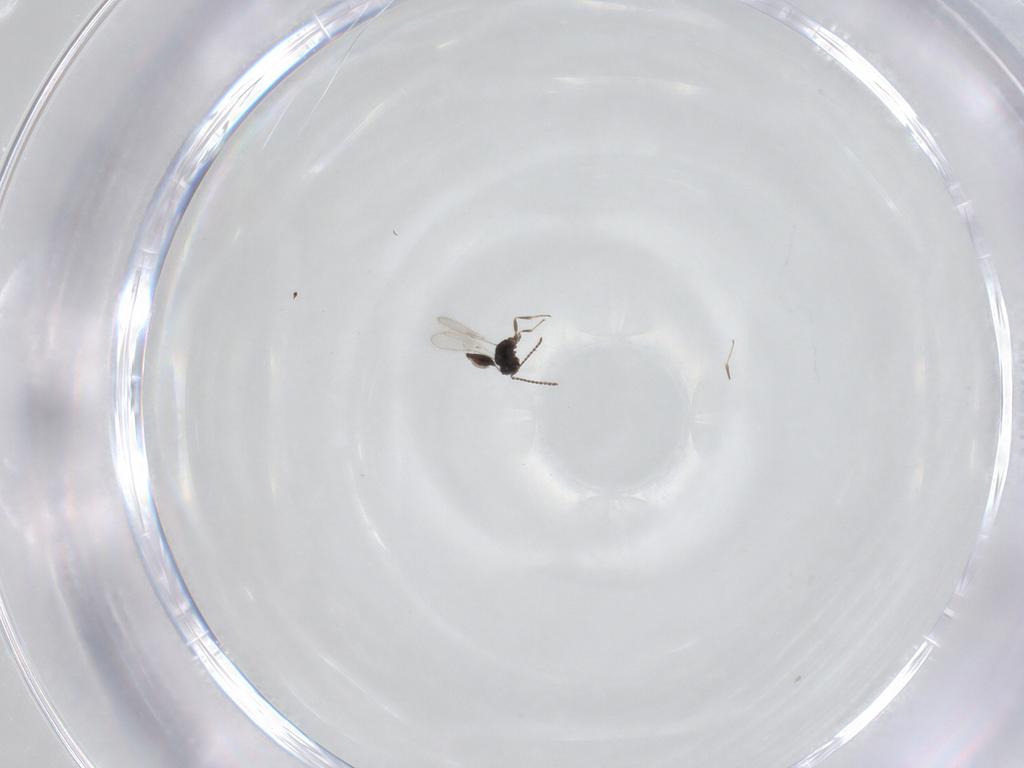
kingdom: Animalia
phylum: Arthropoda
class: Insecta
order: Hymenoptera
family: Scelionidae
